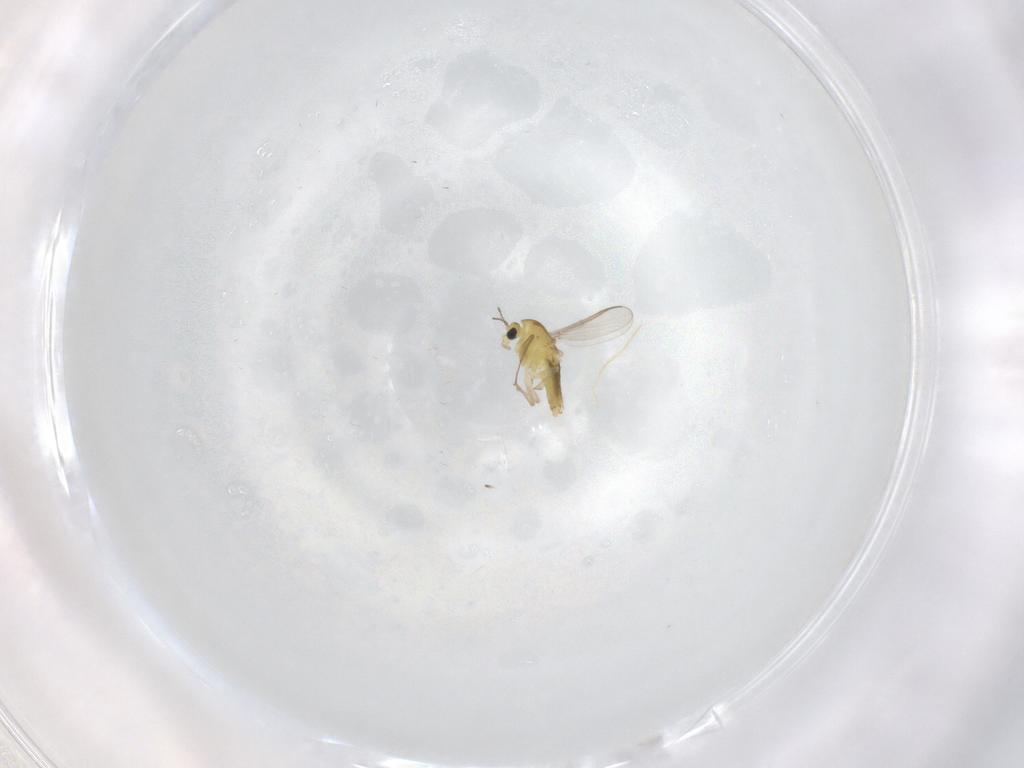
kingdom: Animalia
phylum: Arthropoda
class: Insecta
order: Diptera
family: Chironomidae
